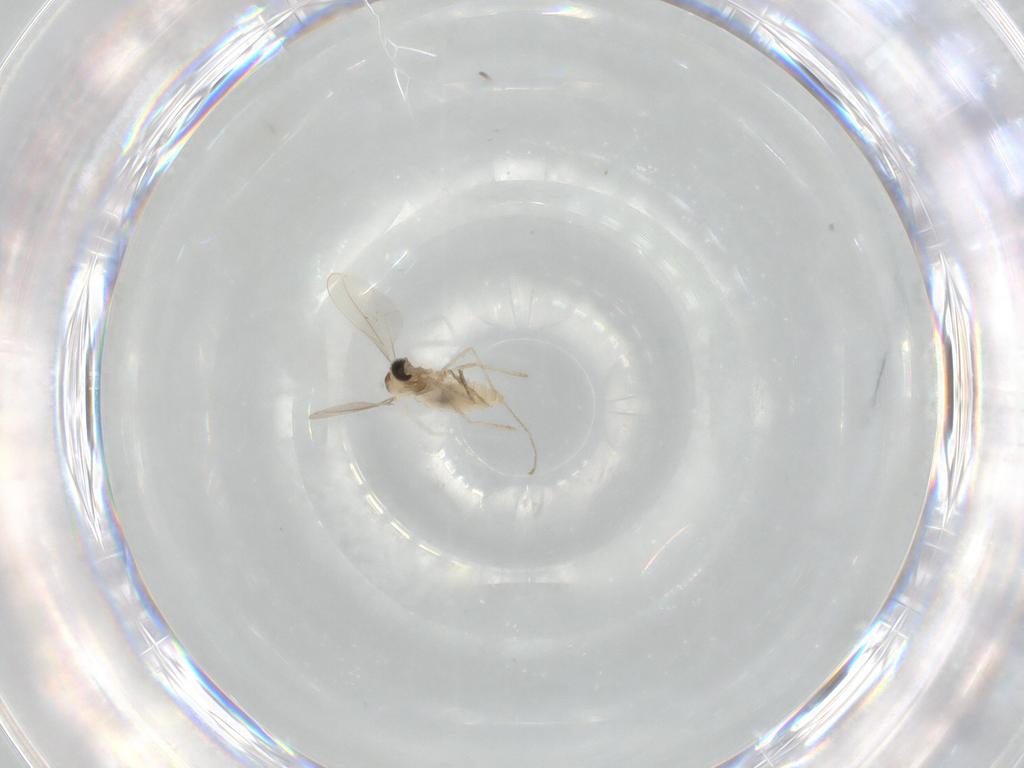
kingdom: Animalia
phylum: Arthropoda
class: Insecta
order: Diptera
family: Cecidomyiidae
